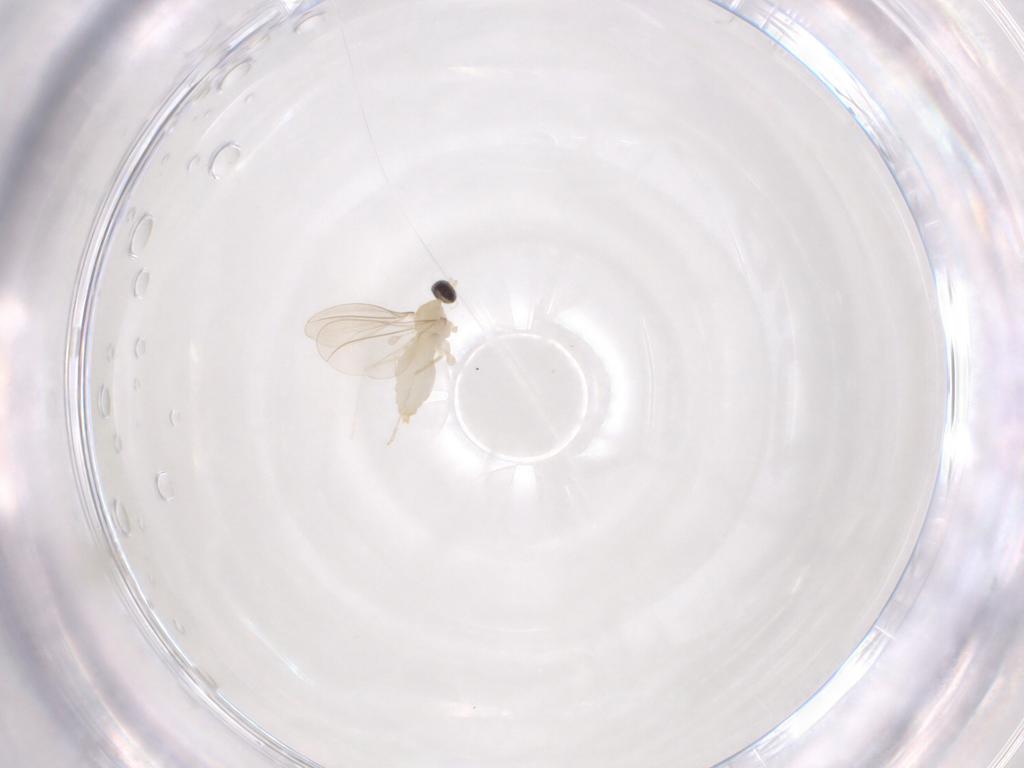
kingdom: Animalia
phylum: Arthropoda
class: Insecta
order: Diptera
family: Cecidomyiidae
